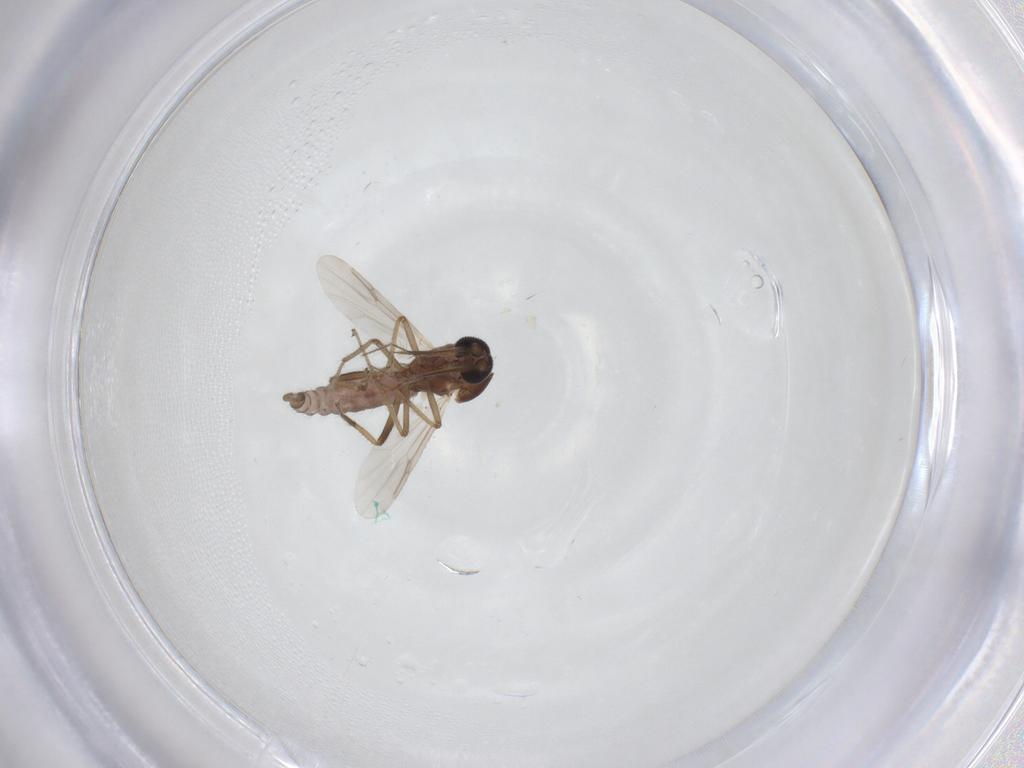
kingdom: Animalia
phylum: Arthropoda
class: Insecta
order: Diptera
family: Ceratopogonidae
